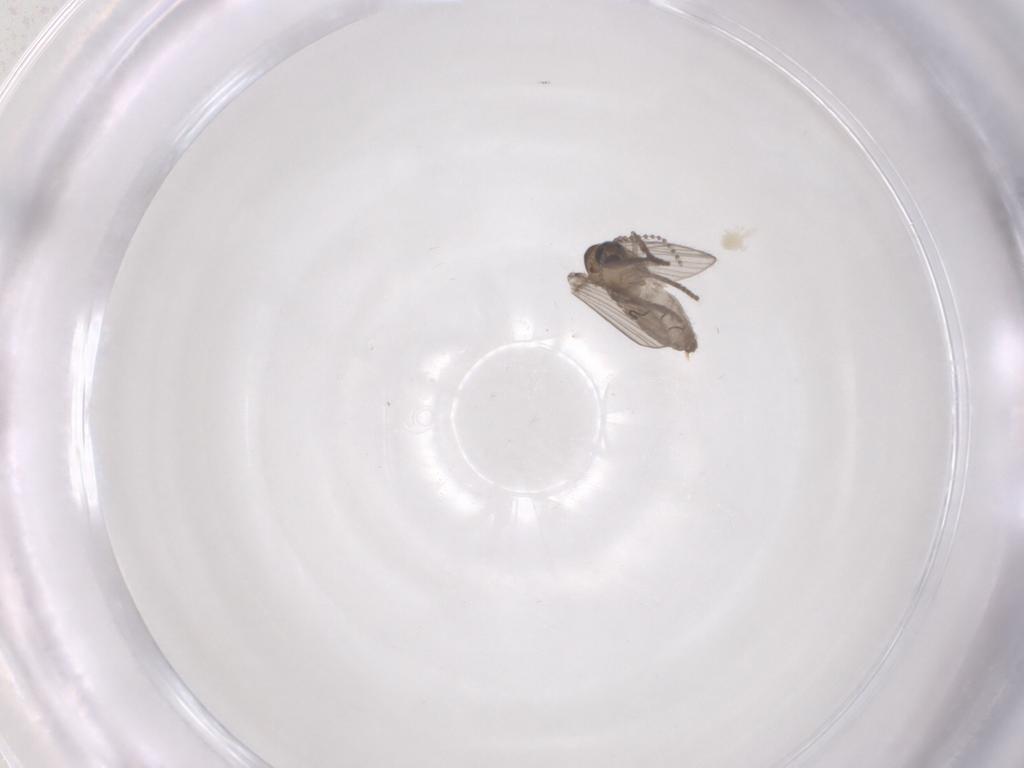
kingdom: Animalia
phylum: Arthropoda
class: Insecta
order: Diptera
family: Psychodidae
